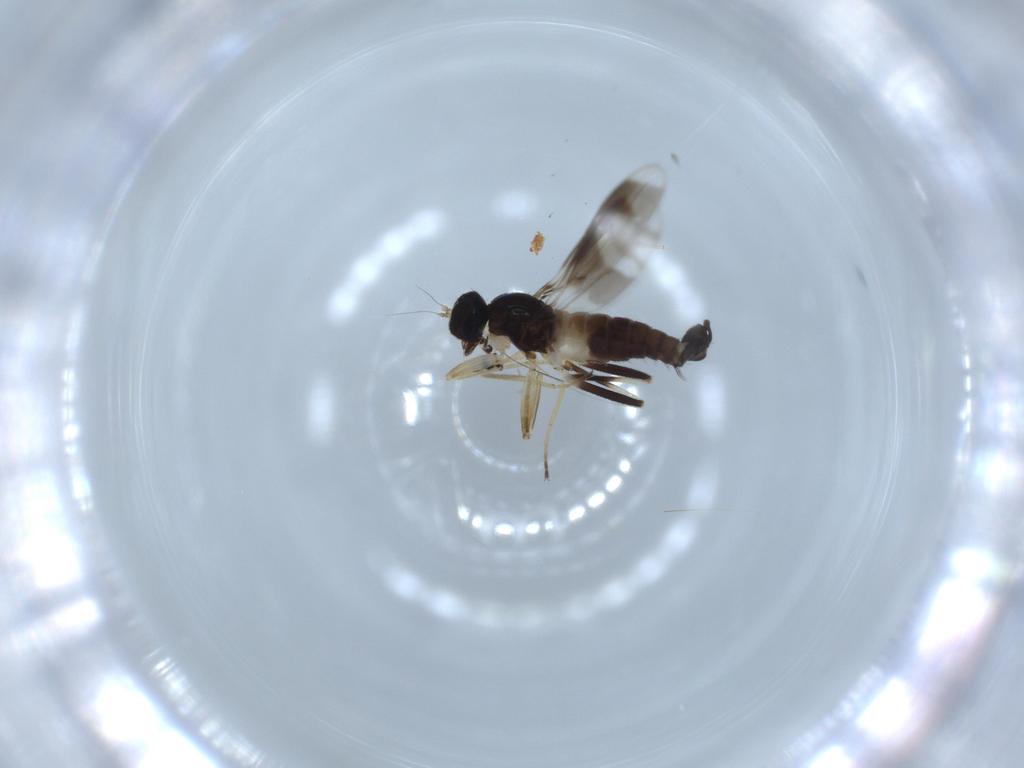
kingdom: Animalia
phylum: Arthropoda
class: Insecta
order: Diptera
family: Hybotidae
